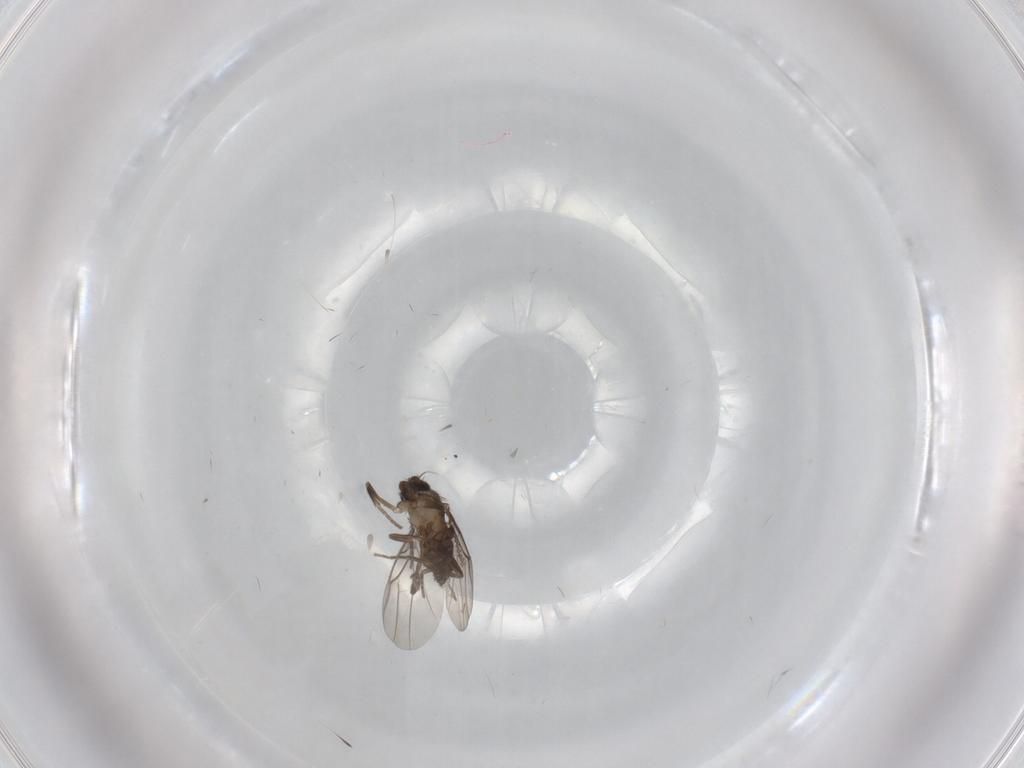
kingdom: Animalia
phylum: Arthropoda
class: Insecta
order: Diptera
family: Cecidomyiidae
